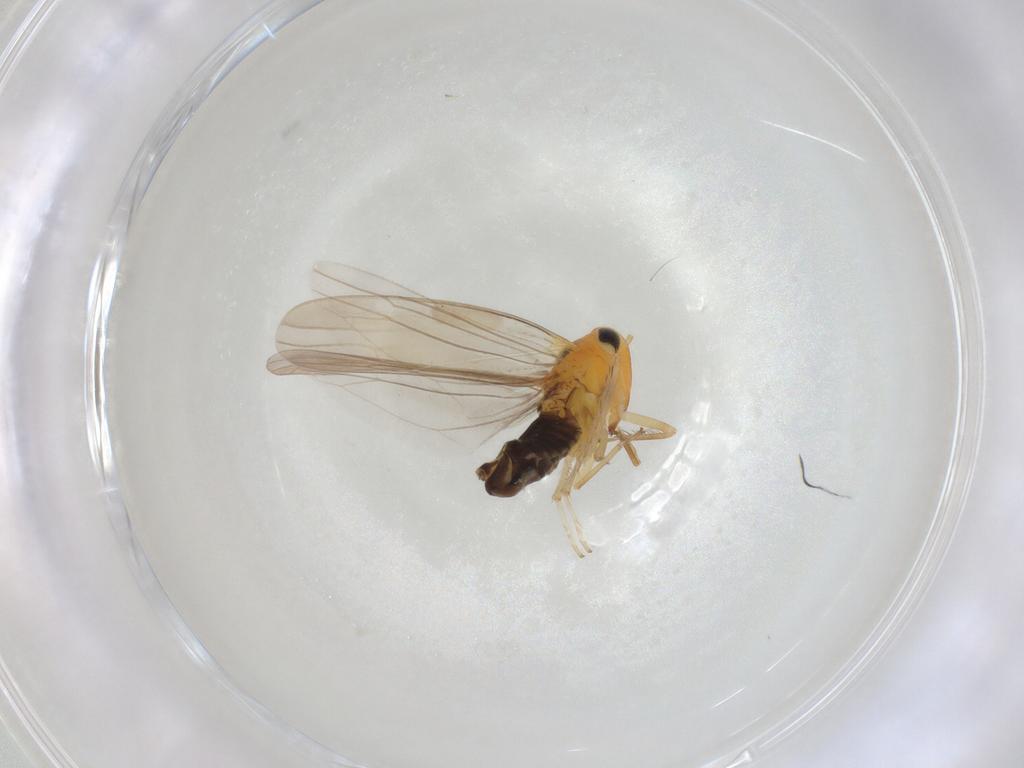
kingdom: Animalia
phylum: Arthropoda
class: Insecta
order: Hemiptera
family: Cicadellidae
